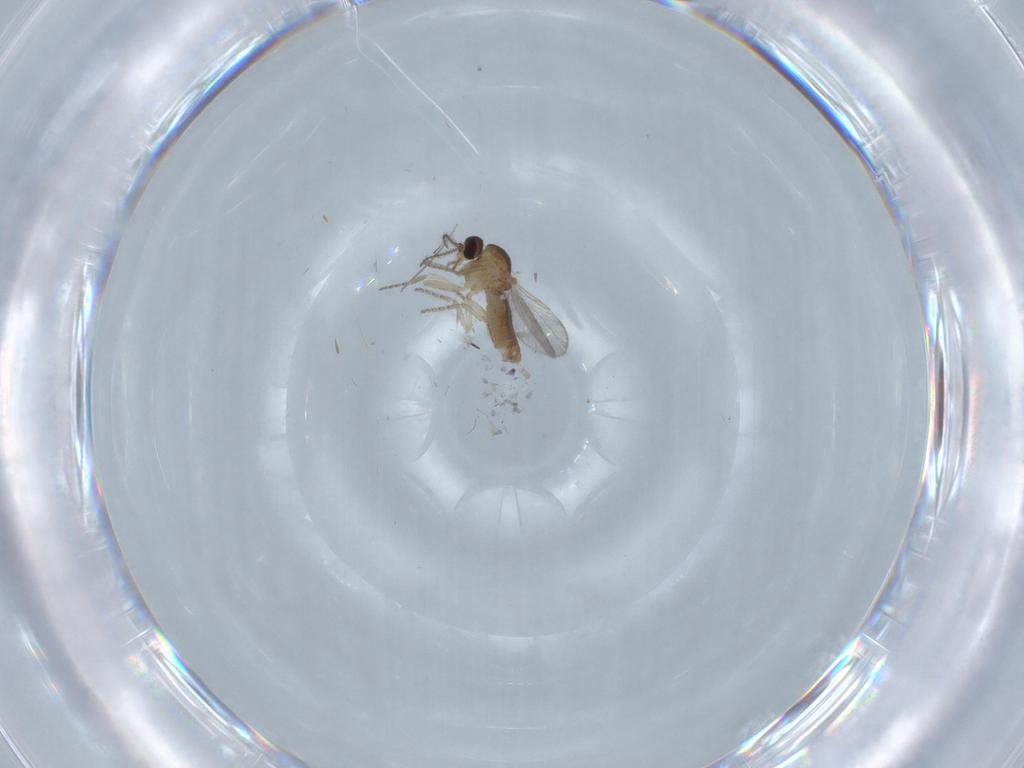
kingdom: Animalia
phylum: Arthropoda
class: Insecta
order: Diptera
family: Ceratopogonidae
